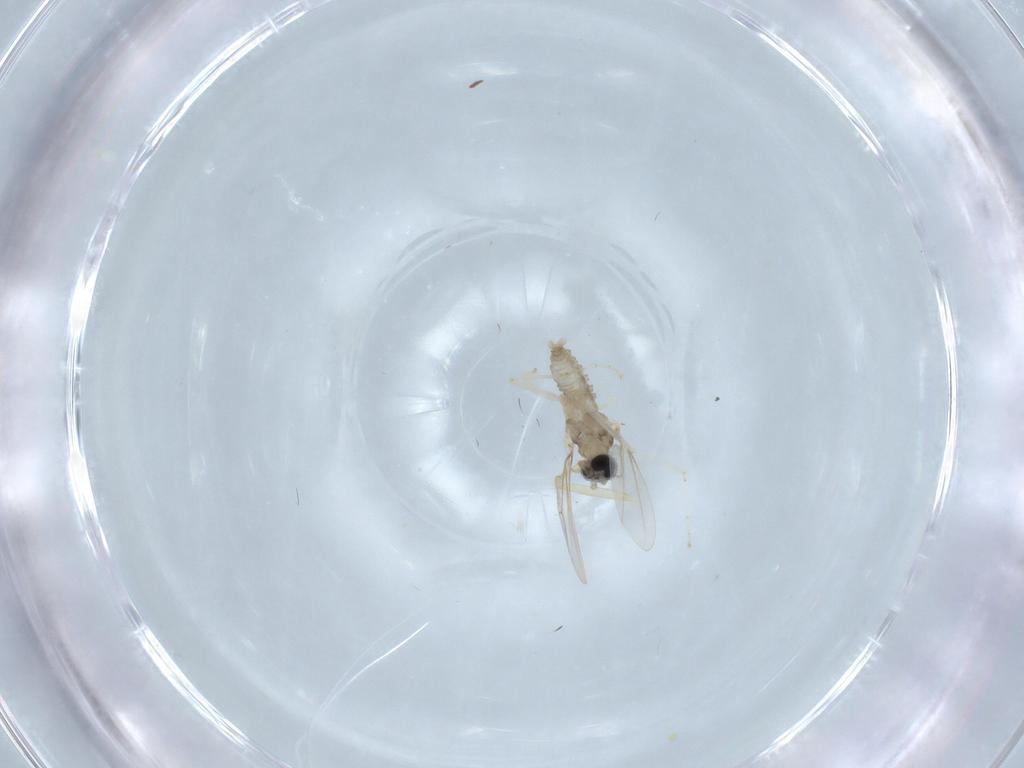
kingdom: Animalia
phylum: Arthropoda
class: Insecta
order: Diptera
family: Cecidomyiidae
